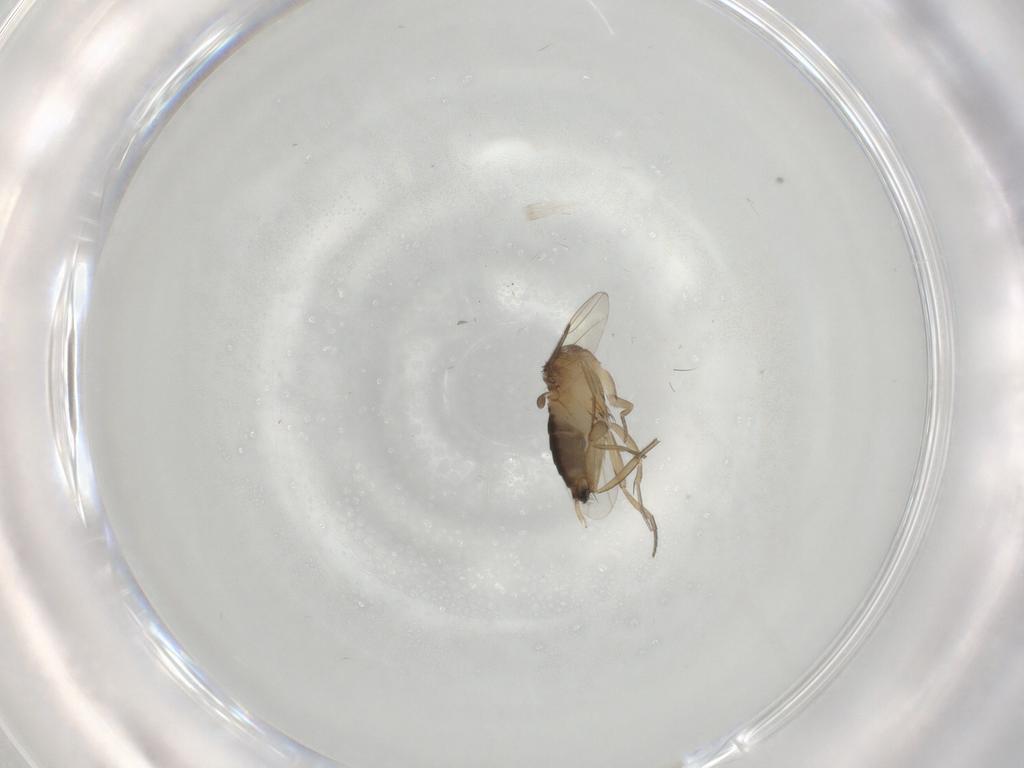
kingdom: Animalia
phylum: Arthropoda
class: Insecta
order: Diptera
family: Phoridae
